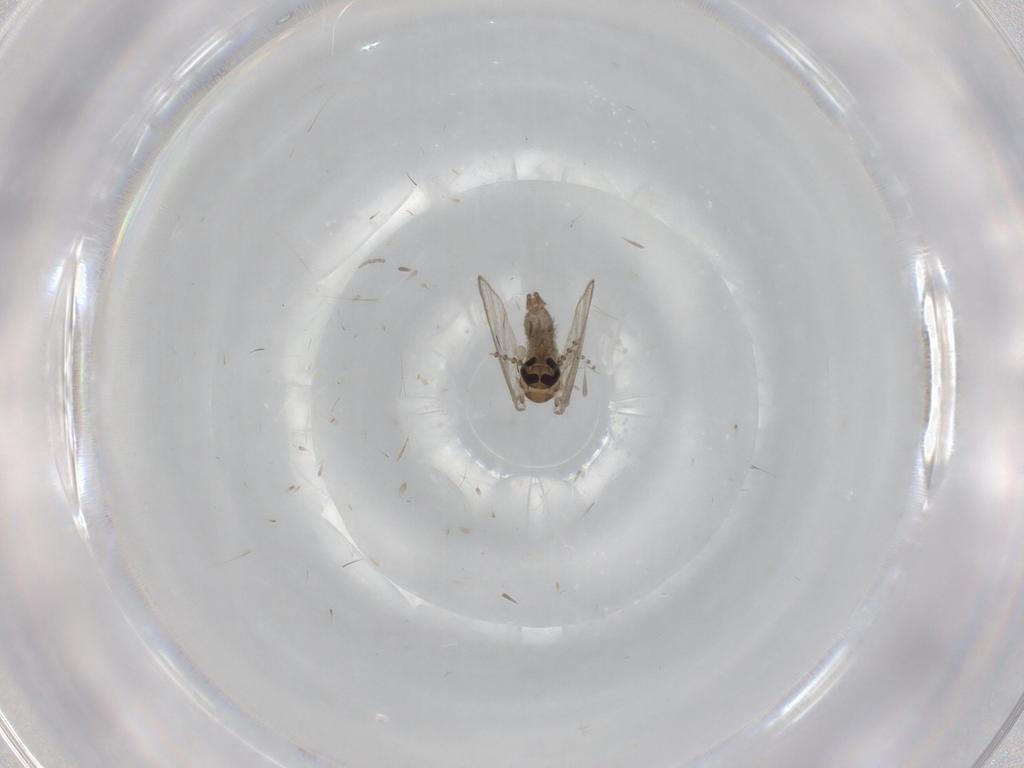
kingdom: Animalia
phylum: Arthropoda
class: Insecta
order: Diptera
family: Psychodidae
